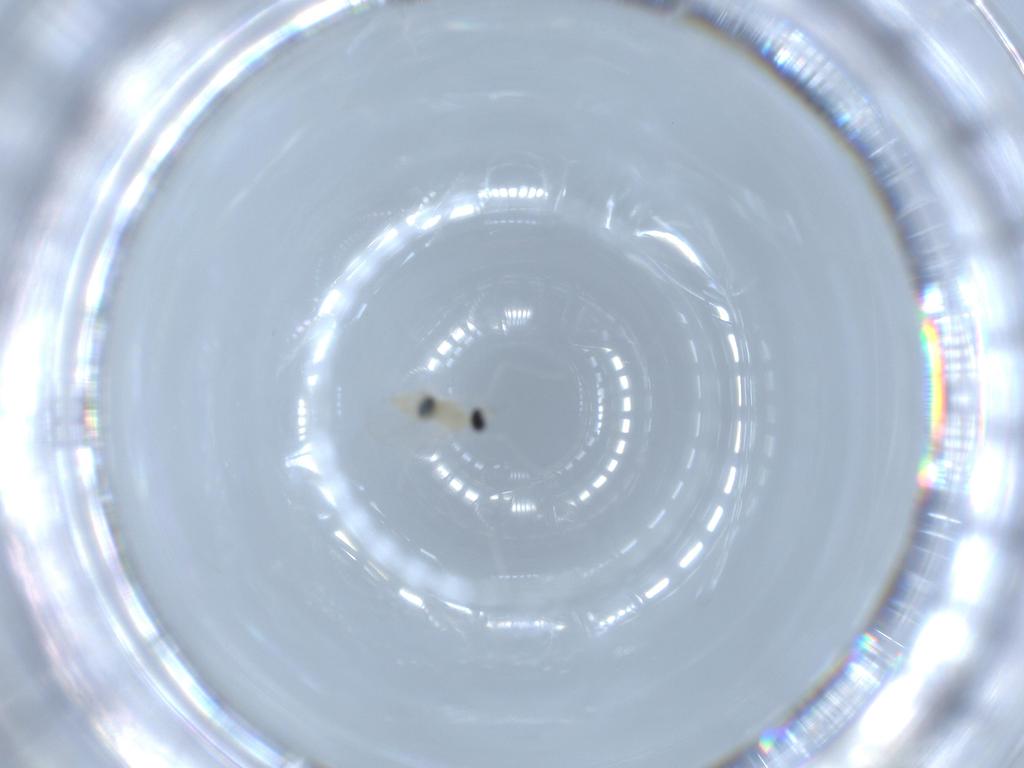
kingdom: Animalia
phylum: Arthropoda
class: Insecta
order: Diptera
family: Cecidomyiidae
